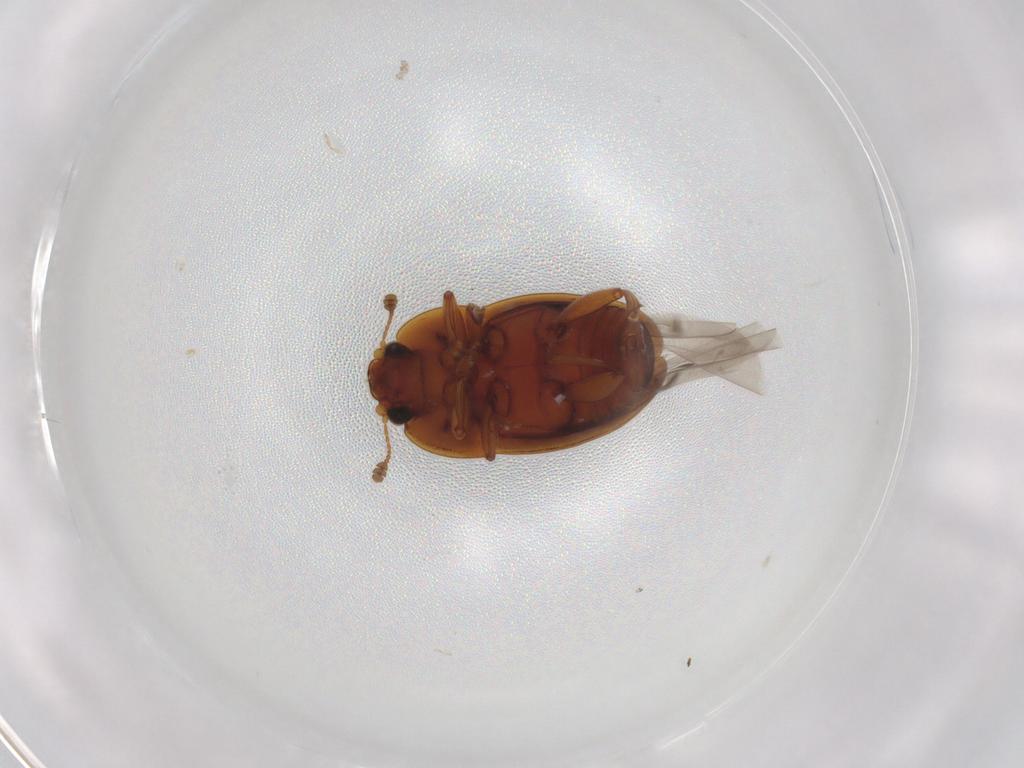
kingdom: Animalia
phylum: Arthropoda
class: Insecta
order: Coleoptera
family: Nitidulidae
